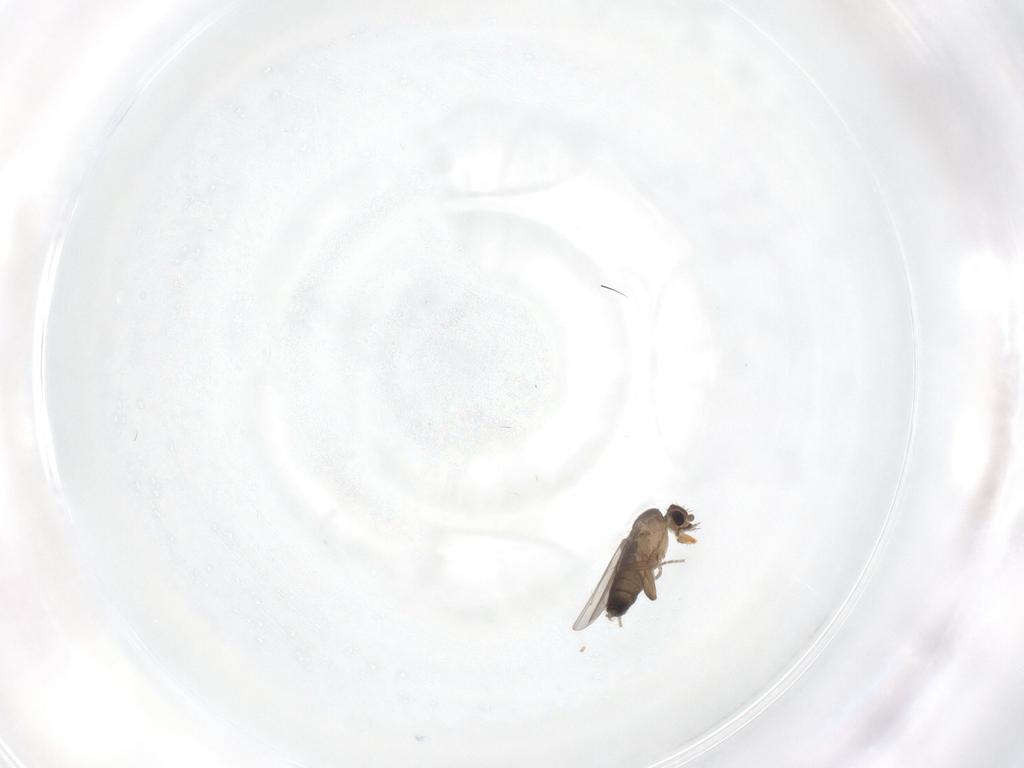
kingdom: Animalia
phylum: Arthropoda
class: Insecta
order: Diptera
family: Phoridae
